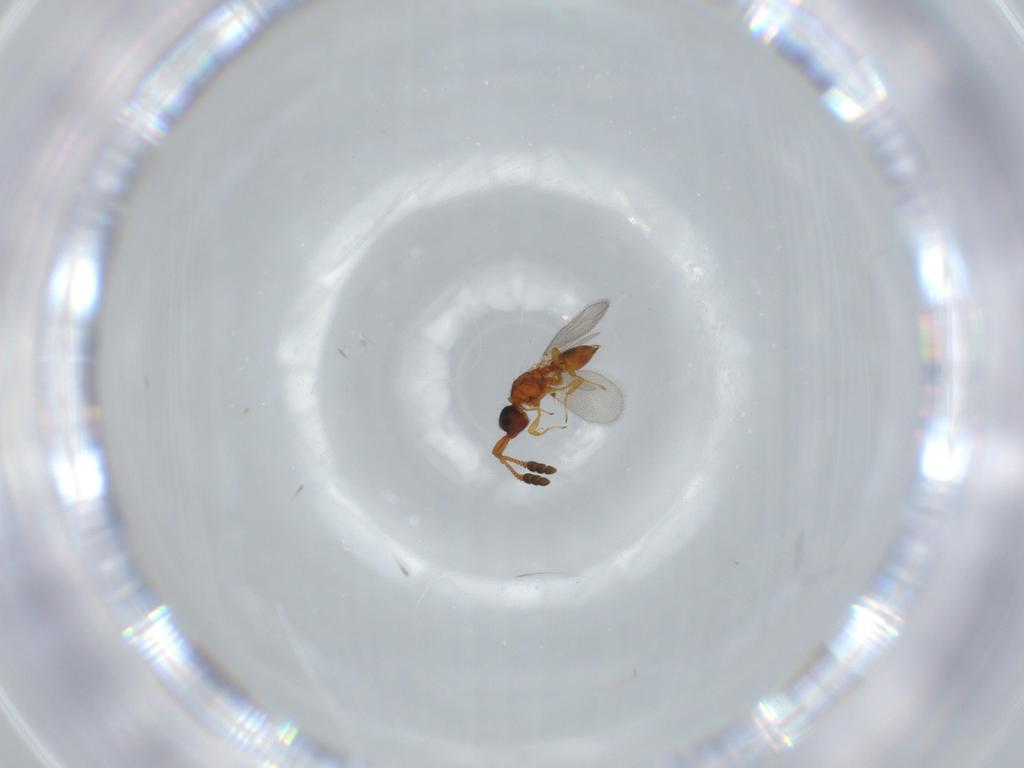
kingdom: Animalia
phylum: Arthropoda
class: Insecta
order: Hymenoptera
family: Diapriidae
